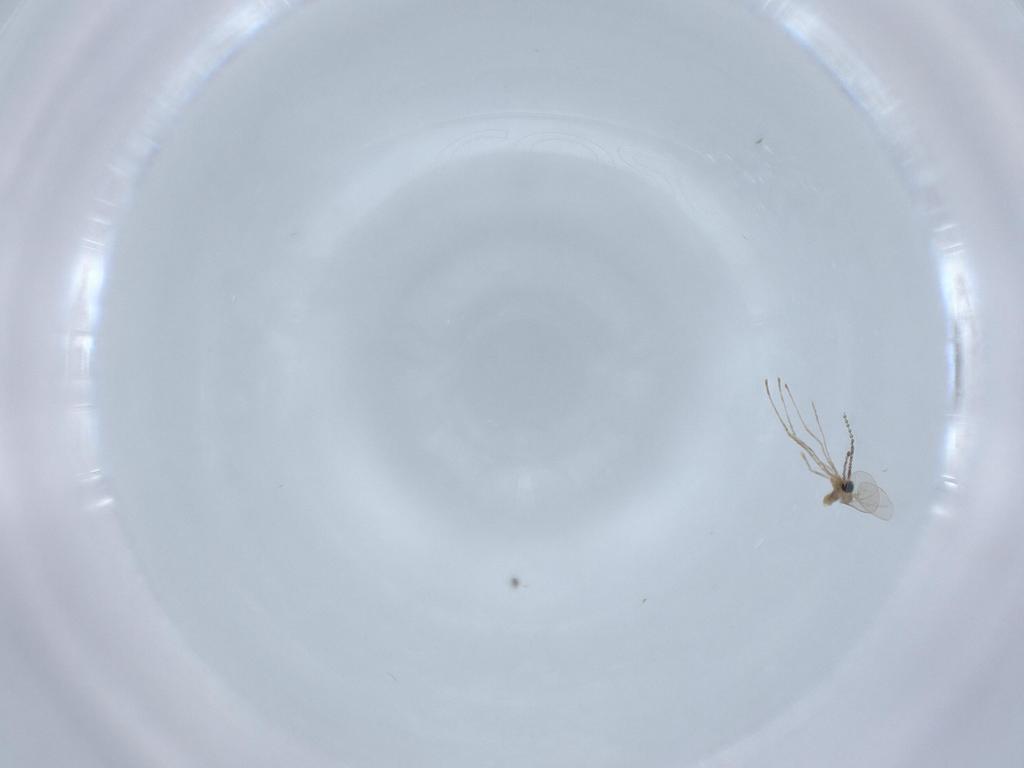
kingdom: Animalia
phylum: Arthropoda
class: Insecta
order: Diptera
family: Cecidomyiidae
